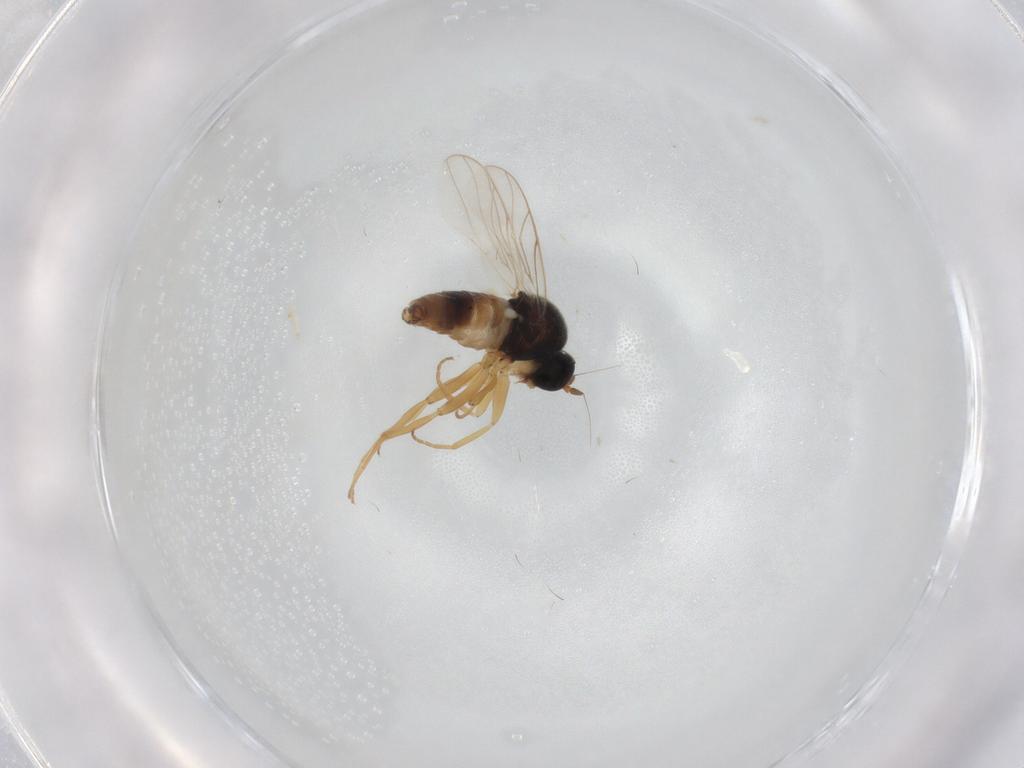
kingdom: Animalia
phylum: Arthropoda
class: Insecta
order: Diptera
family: Hybotidae
